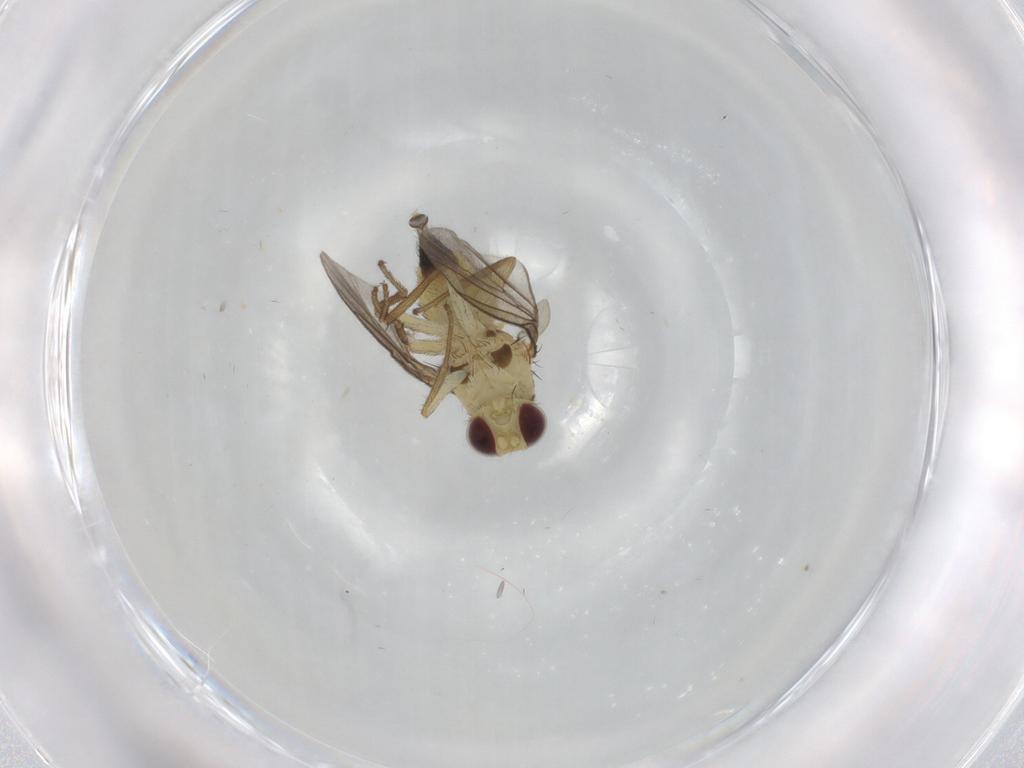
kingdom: Animalia
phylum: Arthropoda
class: Insecta
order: Diptera
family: Agromyzidae
